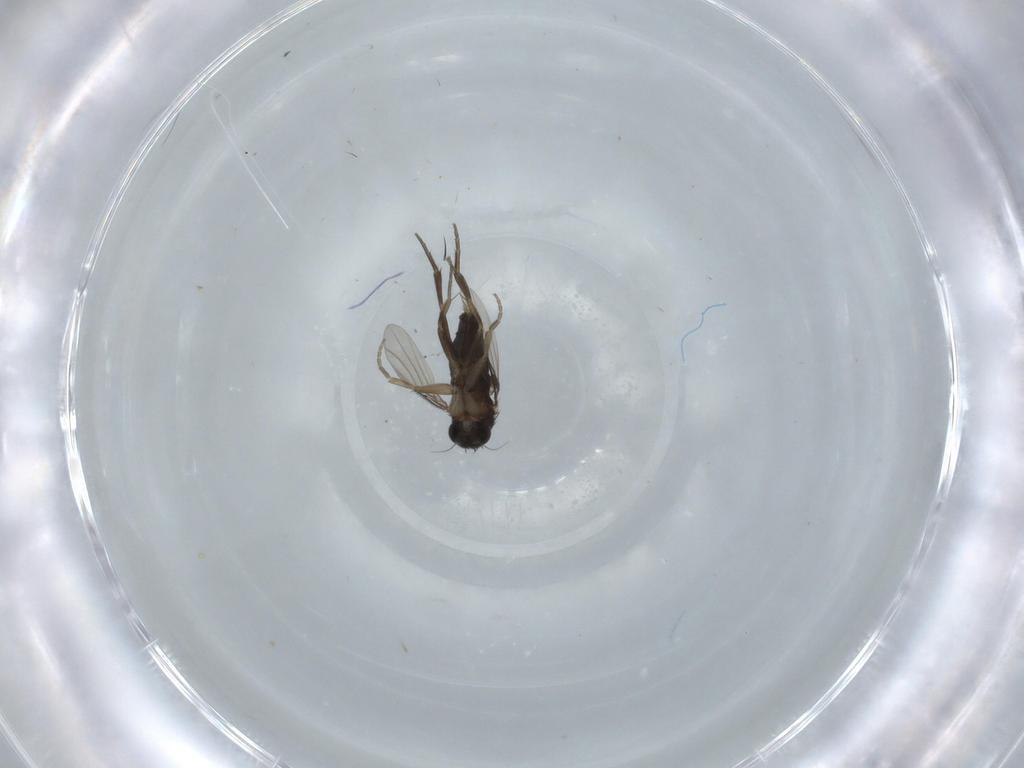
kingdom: Animalia
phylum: Arthropoda
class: Insecta
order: Diptera
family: Phoridae
